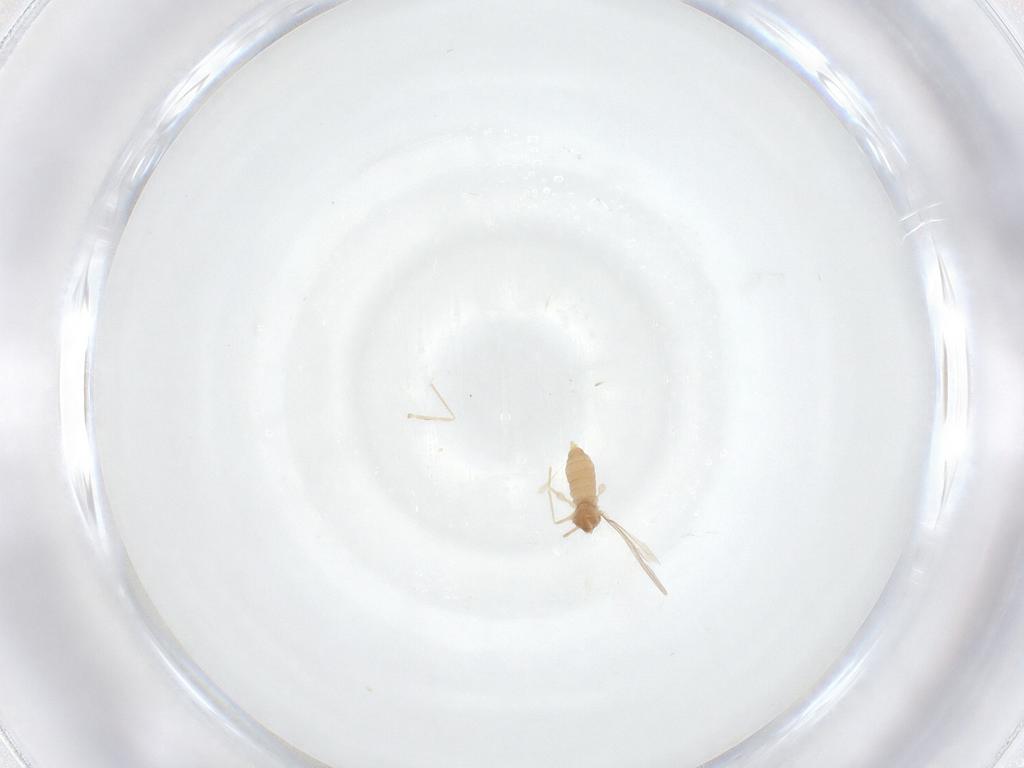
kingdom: Animalia
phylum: Arthropoda
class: Insecta
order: Diptera
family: Cecidomyiidae
